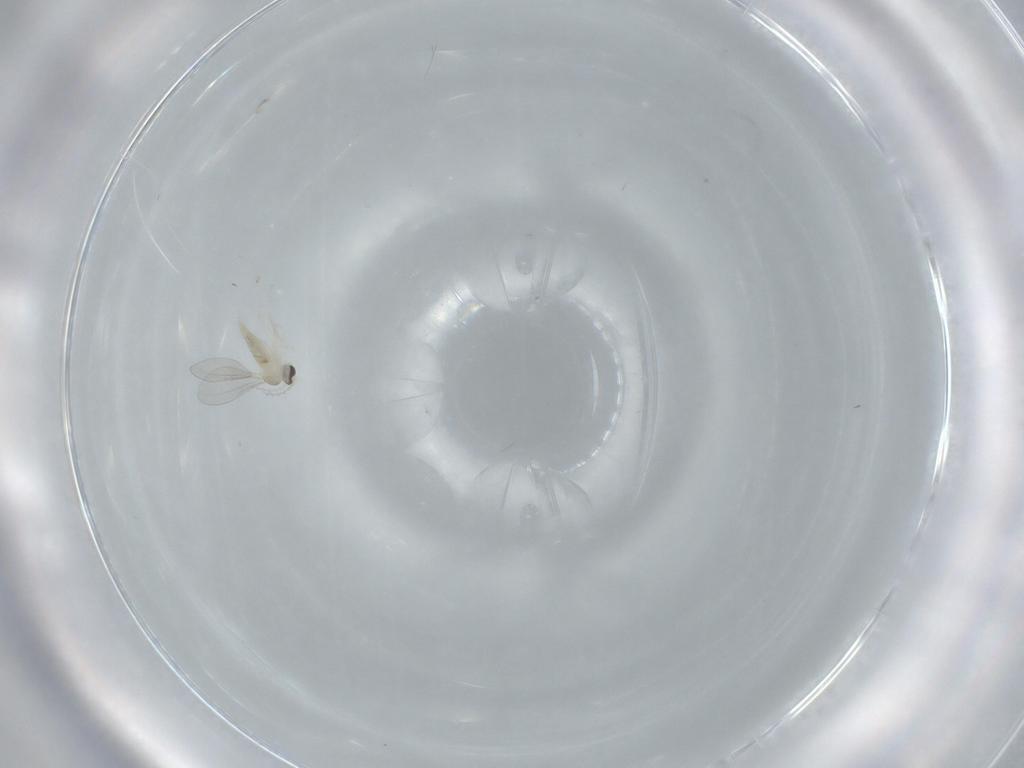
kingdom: Animalia
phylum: Arthropoda
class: Insecta
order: Diptera
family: Cecidomyiidae
